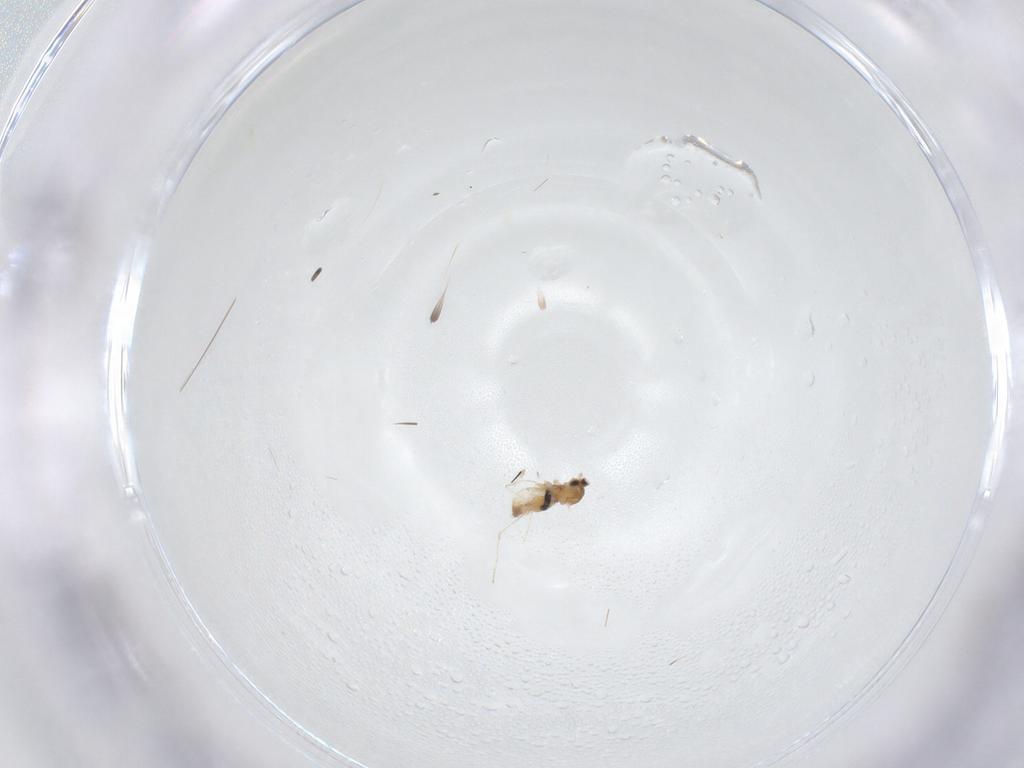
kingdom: Animalia
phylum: Arthropoda
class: Insecta
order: Diptera
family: Cecidomyiidae
